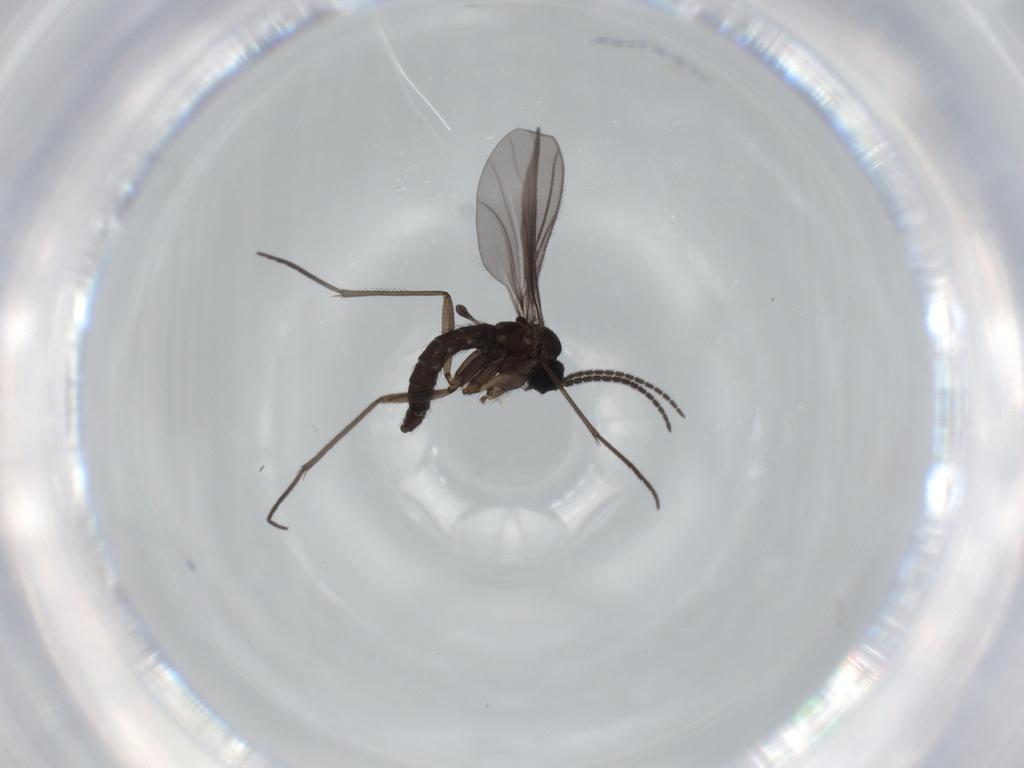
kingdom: Animalia
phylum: Arthropoda
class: Insecta
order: Diptera
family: Sciaridae
